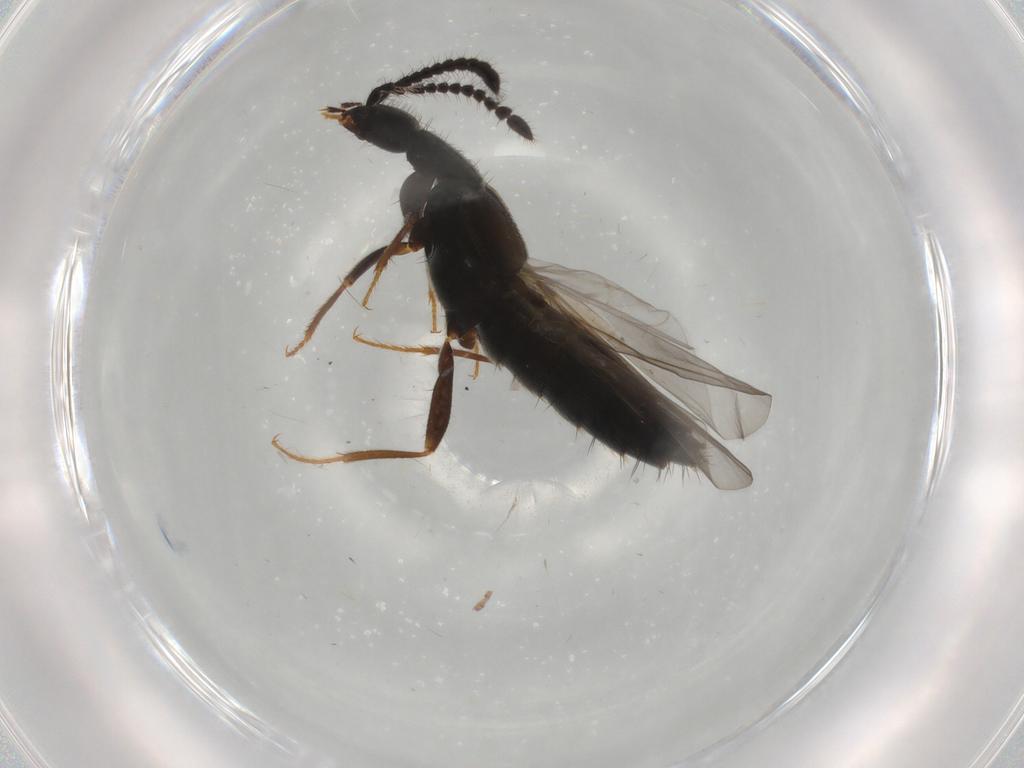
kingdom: Animalia
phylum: Arthropoda
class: Insecta
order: Coleoptera
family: Staphylinidae
